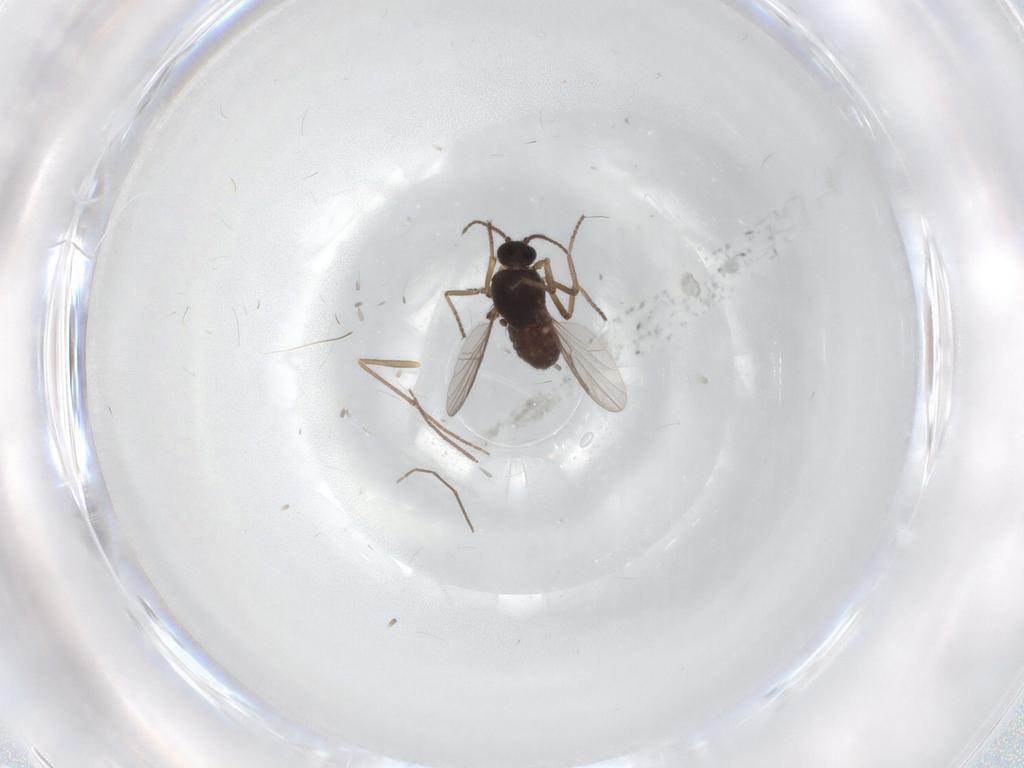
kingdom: Animalia
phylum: Arthropoda
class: Insecta
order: Diptera
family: Ceratopogonidae
